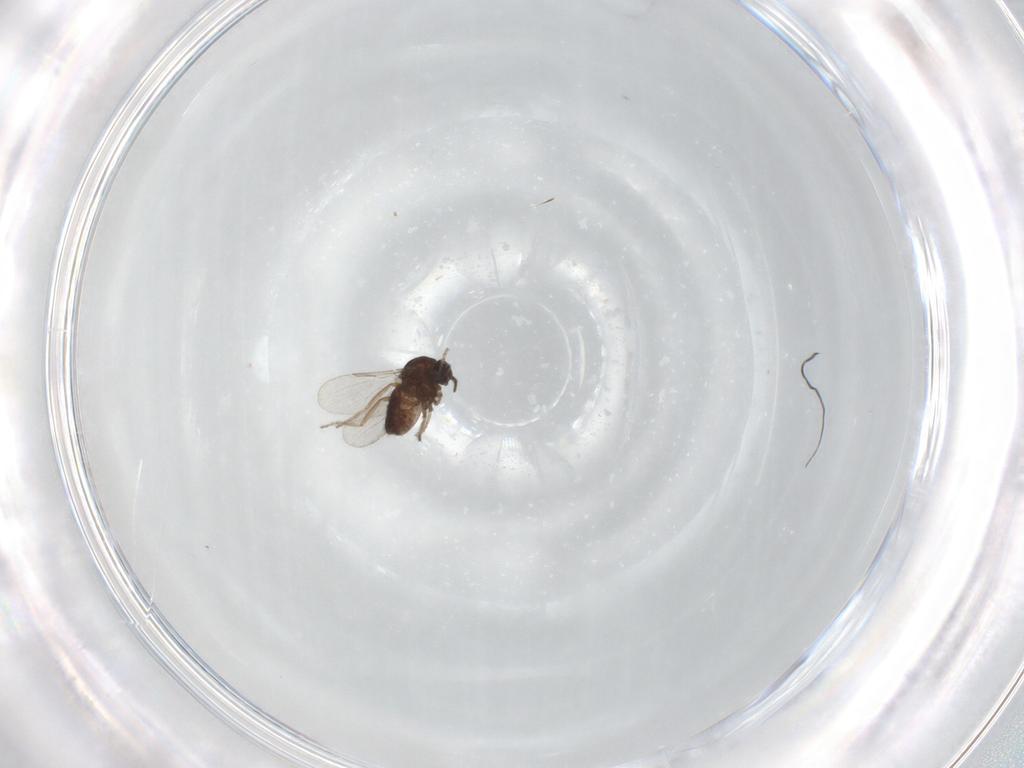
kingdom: Animalia
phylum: Arthropoda
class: Insecta
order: Diptera
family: Ceratopogonidae
